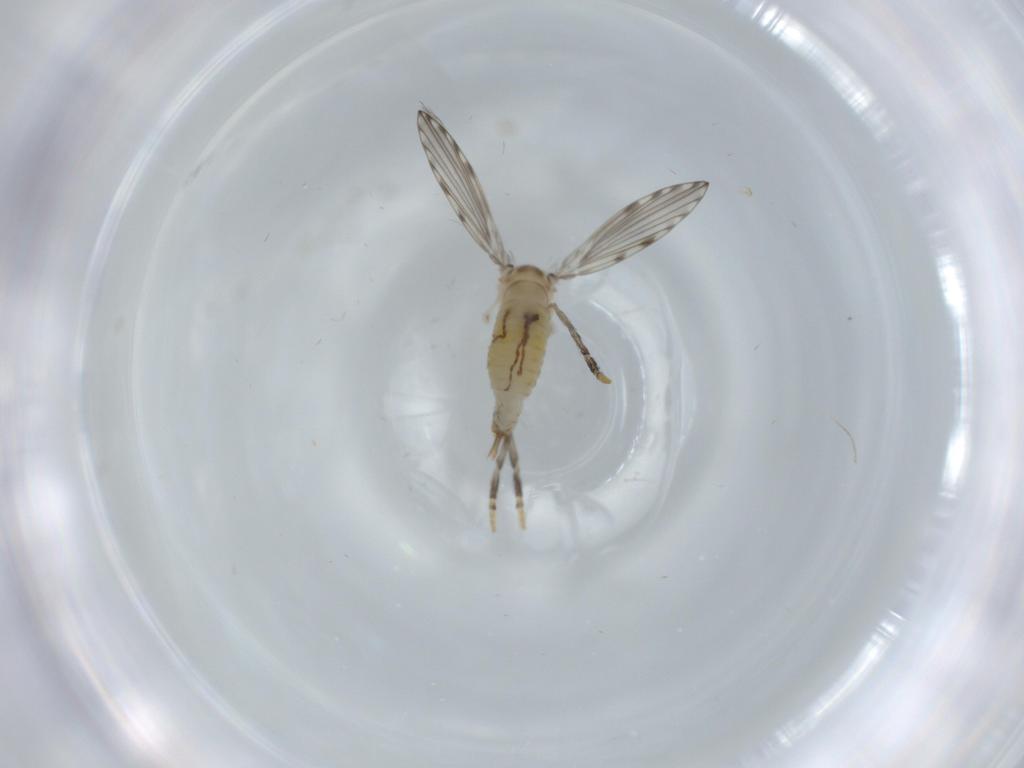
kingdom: Animalia
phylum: Arthropoda
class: Insecta
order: Diptera
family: Psychodidae
